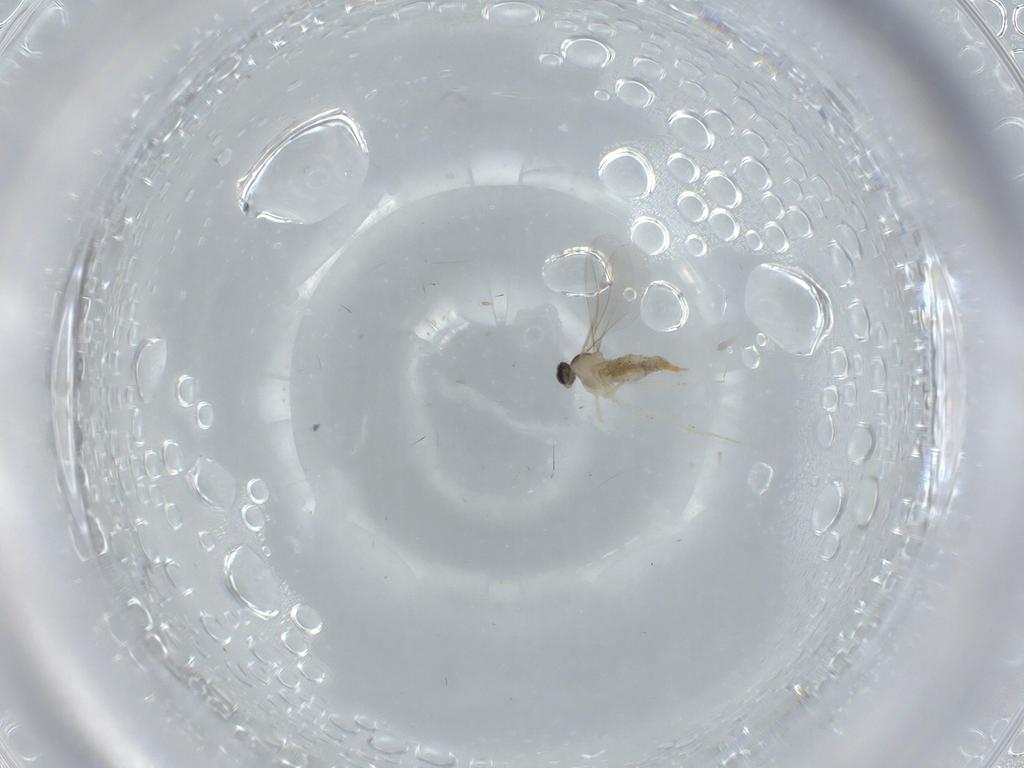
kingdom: Animalia
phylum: Arthropoda
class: Insecta
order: Diptera
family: Cecidomyiidae
